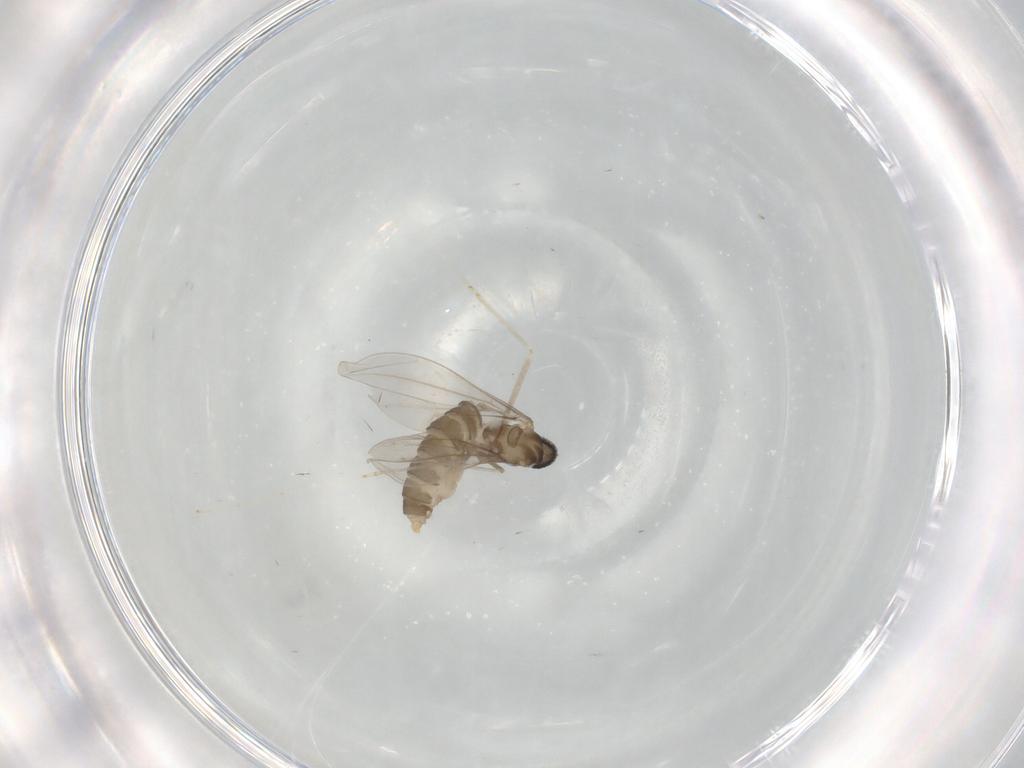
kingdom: Animalia
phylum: Arthropoda
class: Insecta
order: Diptera
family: Cecidomyiidae
